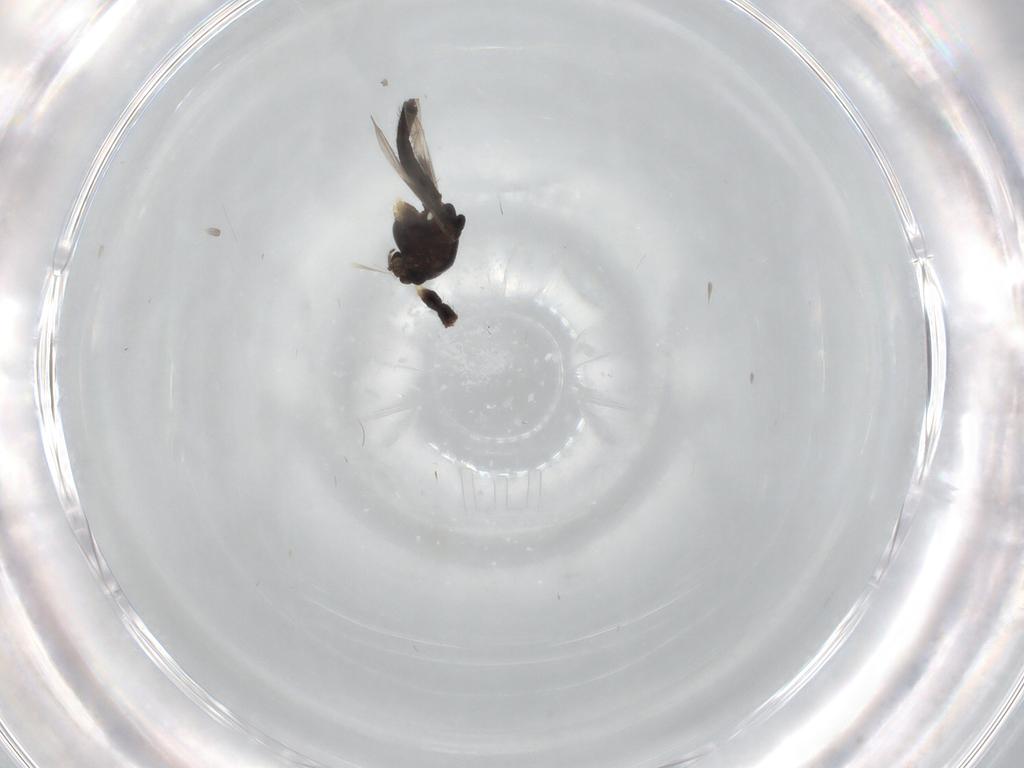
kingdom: Animalia
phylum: Arthropoda
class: Insecta
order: Diptera
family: Chironomidae
